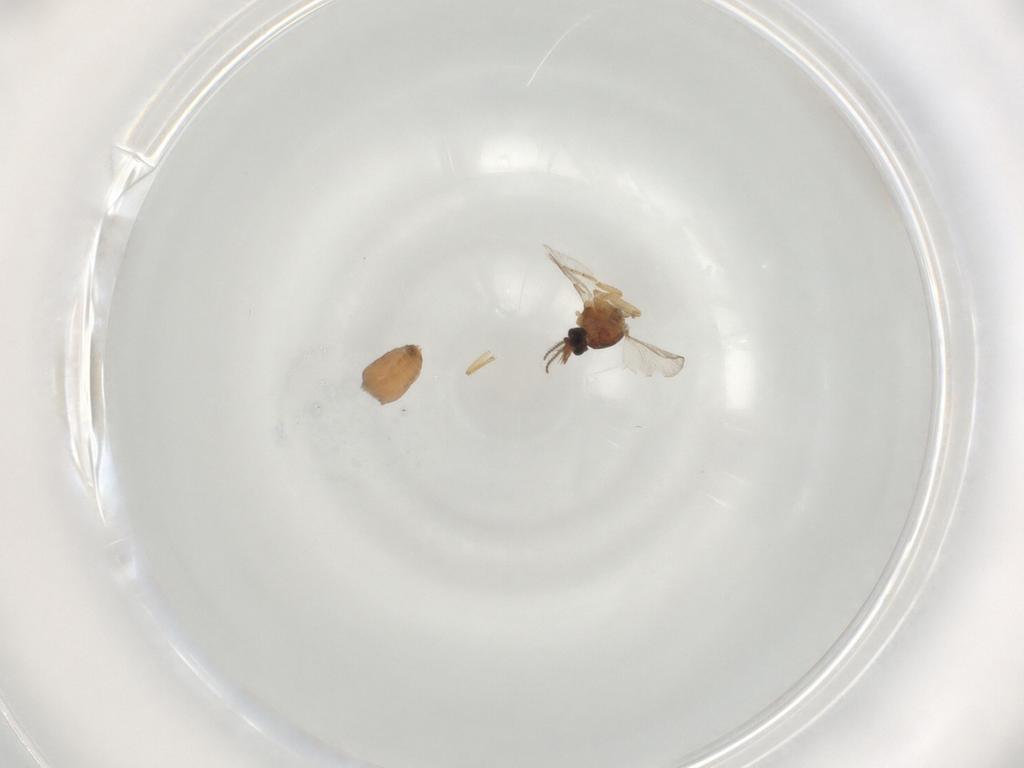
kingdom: Animalia
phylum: Arthropoda
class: Insecta
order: Diptera
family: Ceratopogonidae
